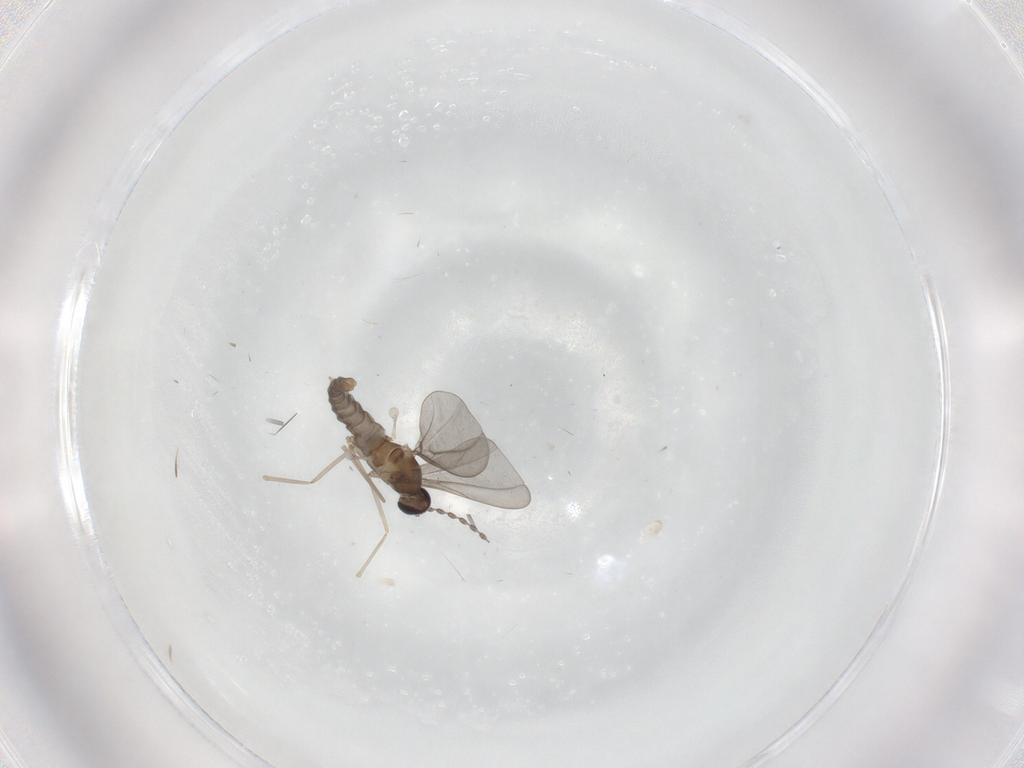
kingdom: Animalia
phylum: Arthropoda
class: Insecta
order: Diptera
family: Cecidomyiidae
